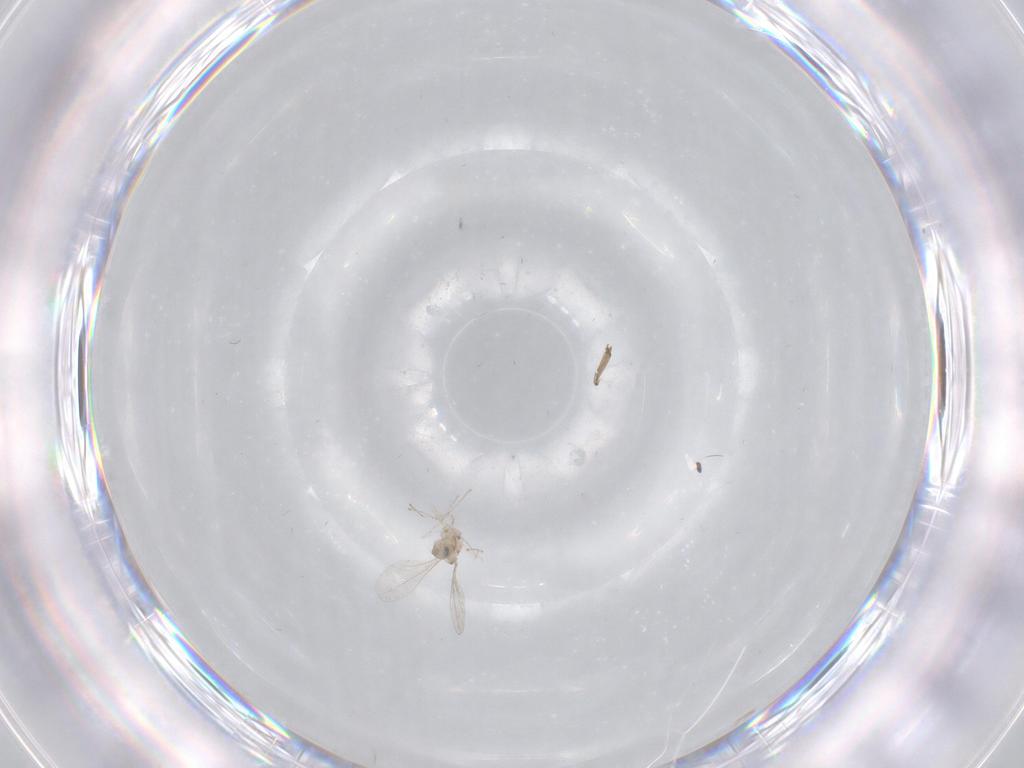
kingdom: Animalia
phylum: Arthropoda
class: Insecta
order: Diptera
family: Cecidomyiidae
